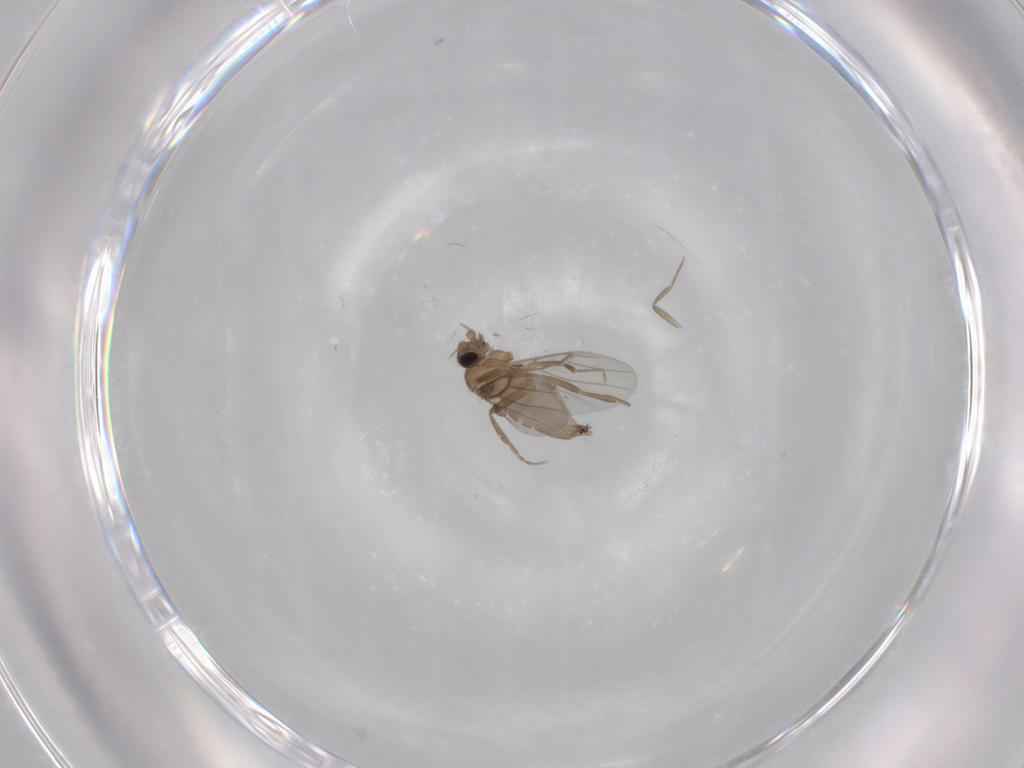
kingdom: Animalia
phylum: Arthropoda
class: Insecta
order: Diptera
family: Psychodidae
